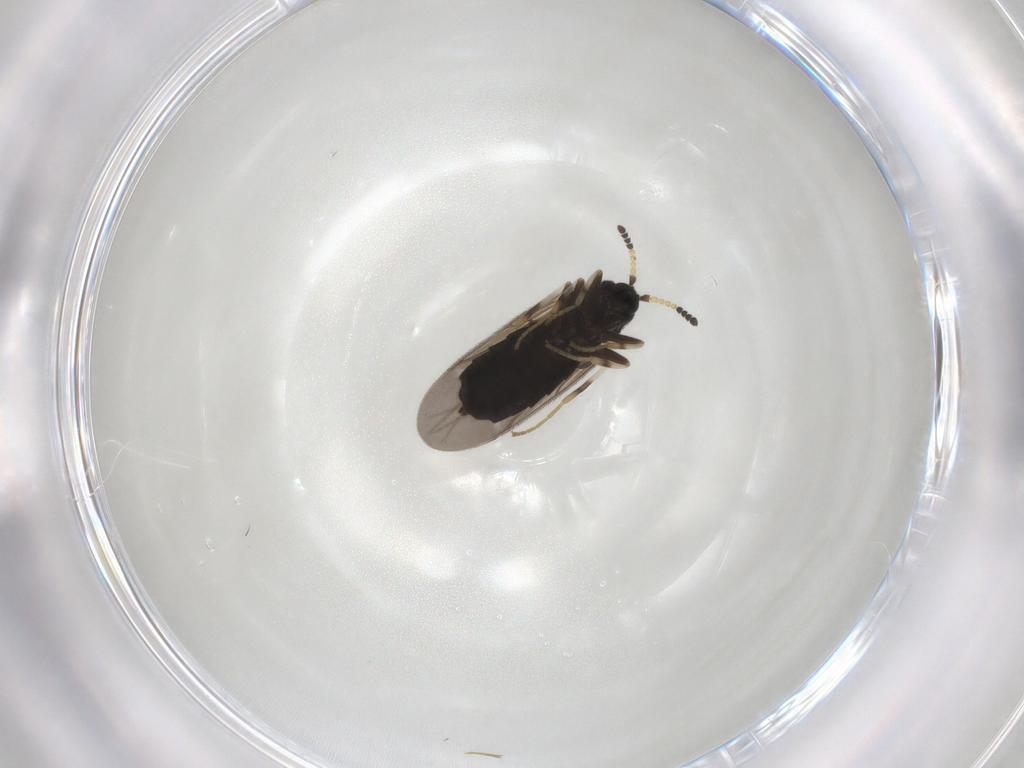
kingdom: Animalia
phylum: Arthropoda
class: Insecta
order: Diptera
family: Scatopsidae
